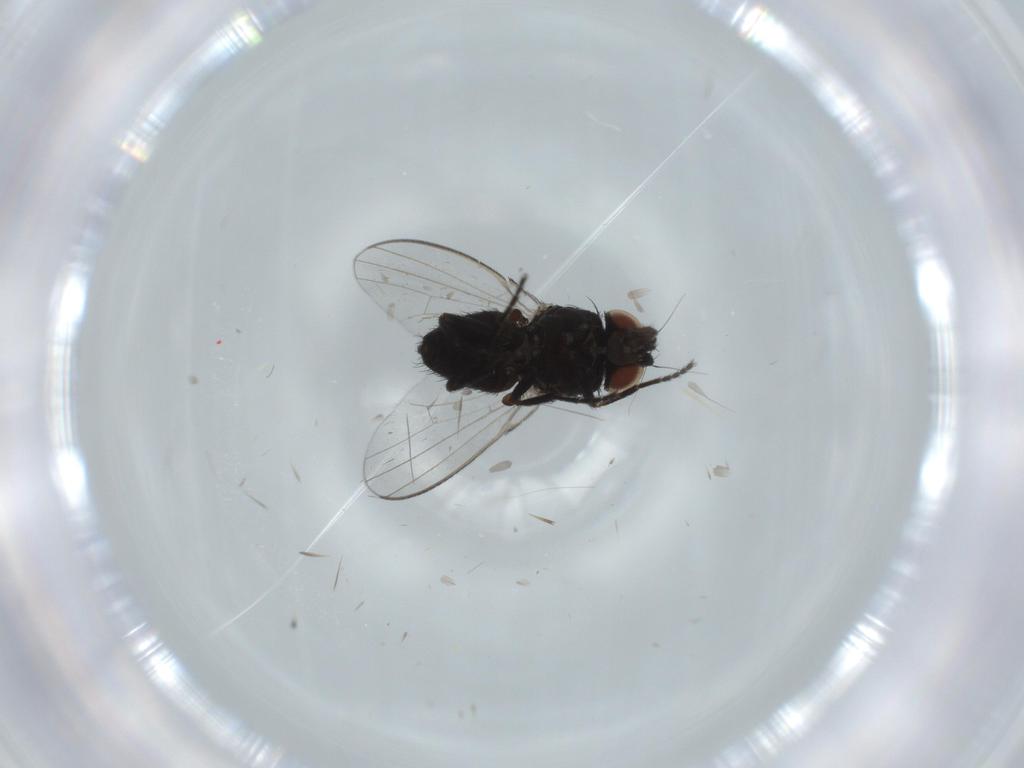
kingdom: Animalia
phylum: Arthropoda
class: Insecta
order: Diptera
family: Milichiidae
